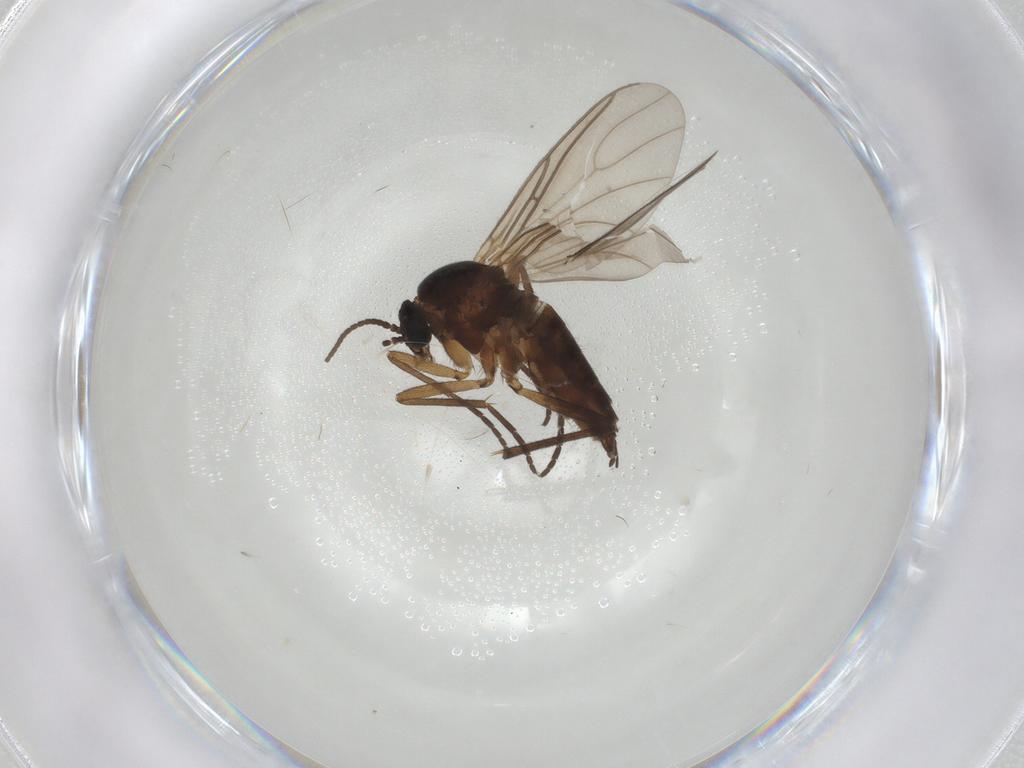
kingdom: Animalia
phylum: Arthropoda
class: Insecta
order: Diptera
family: Sciaridae
